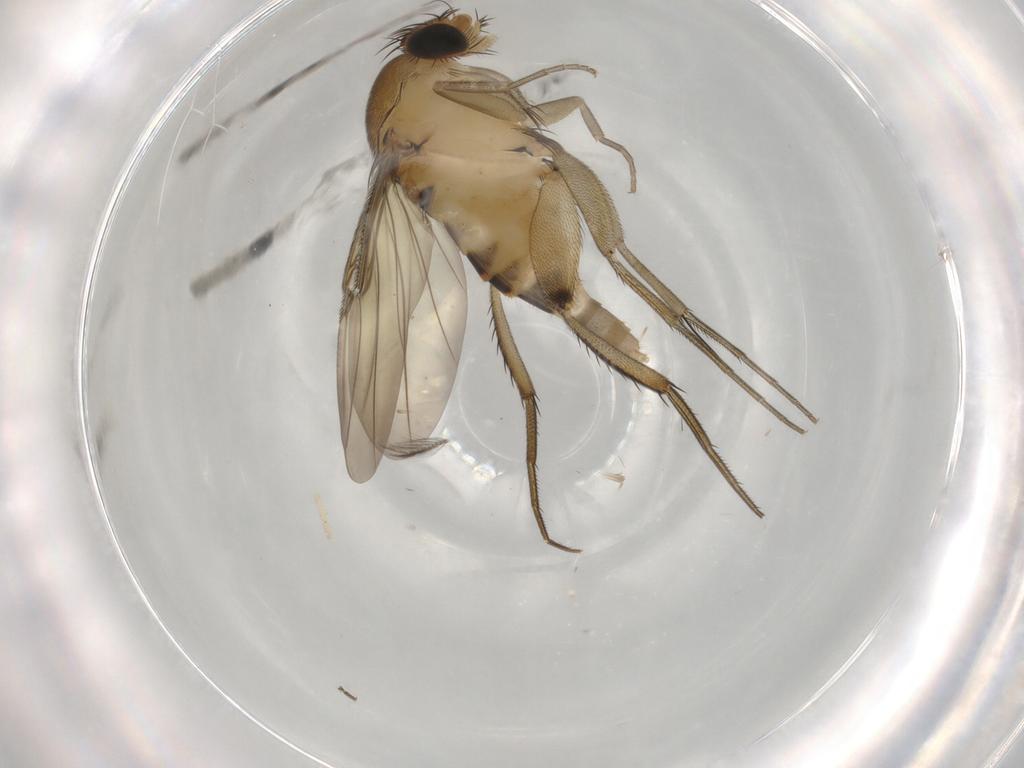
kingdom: Animalia
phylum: Arthropoda
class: Insecta
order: Diptera
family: Phoridae
